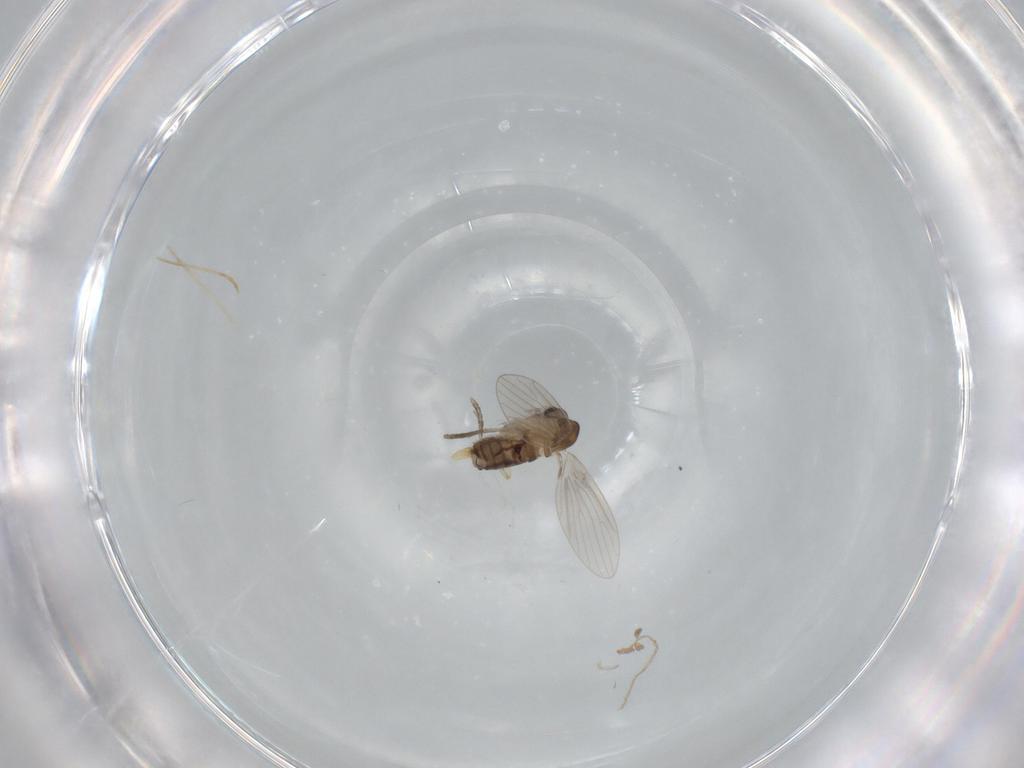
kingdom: Animalia
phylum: Arthropoda
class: Insecta
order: Diptera
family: Psychodidae
